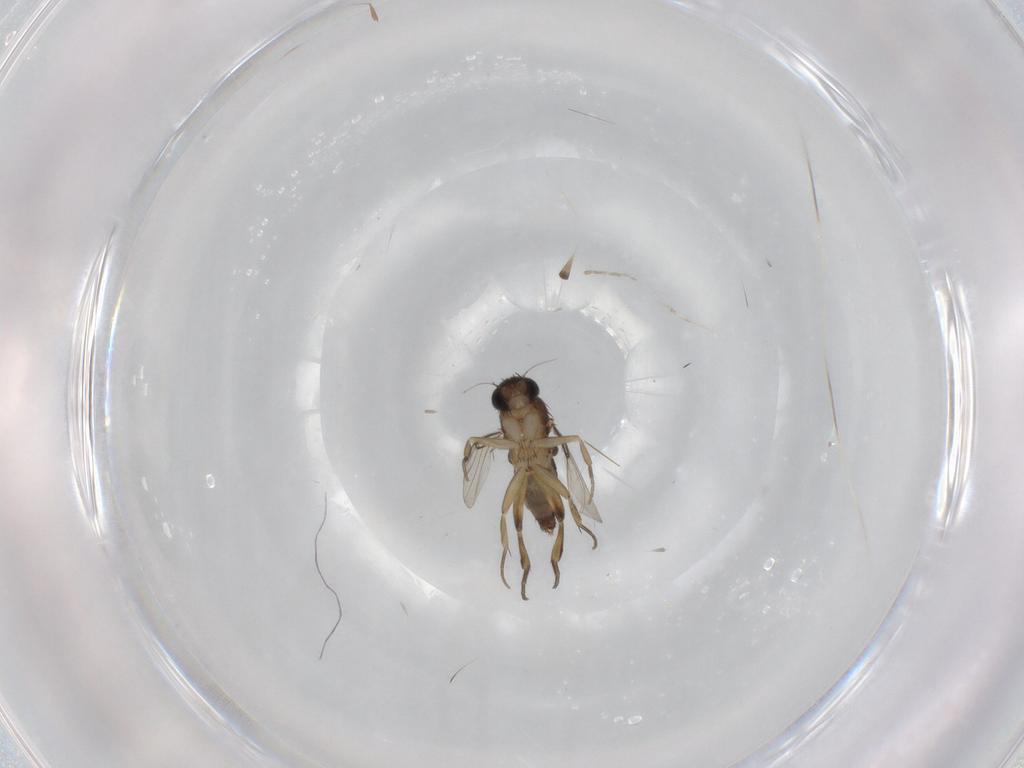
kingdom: Animalia
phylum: Arthropoda
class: Insecta
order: Diptera
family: Phoridae
